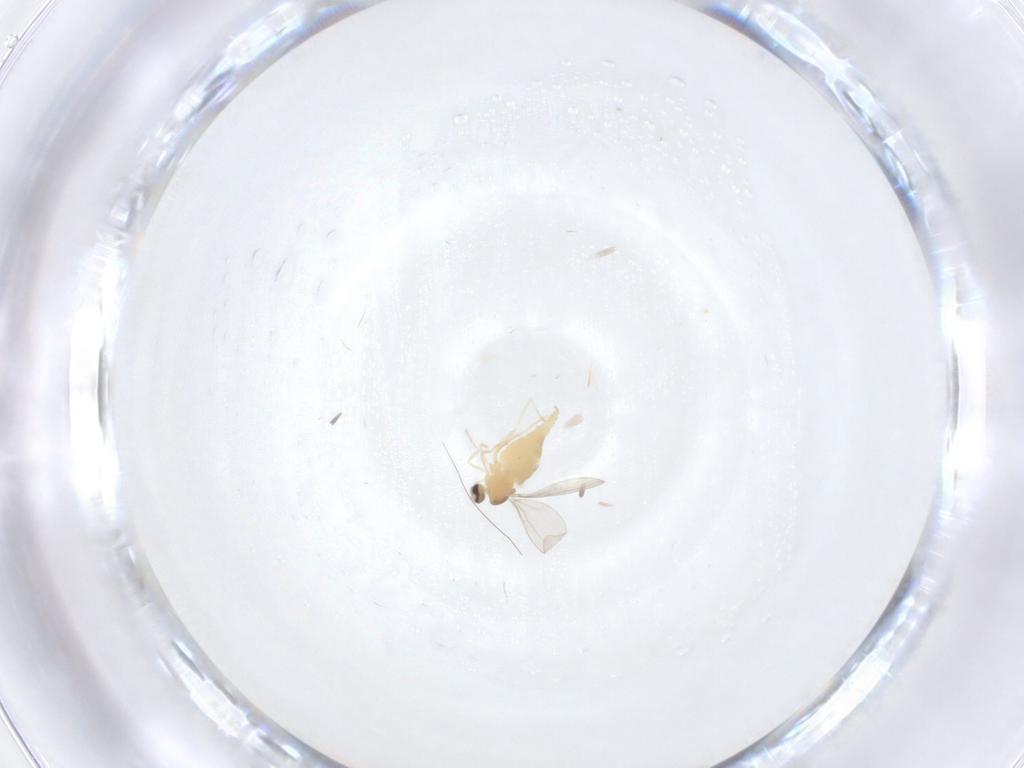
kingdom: Animalia
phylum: Arthropoda
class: Insecta
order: Diptera
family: Cecidomyiidae
